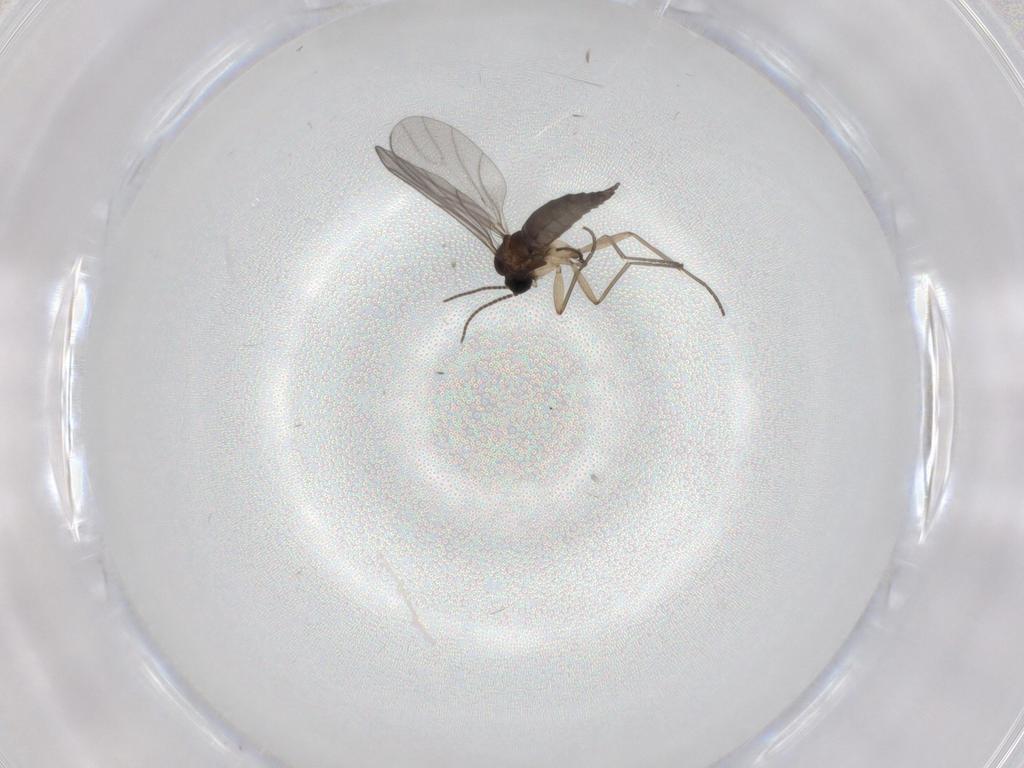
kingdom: Animalia
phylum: Arthropoda
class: Insecta
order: Diptera
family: Sciaridae
